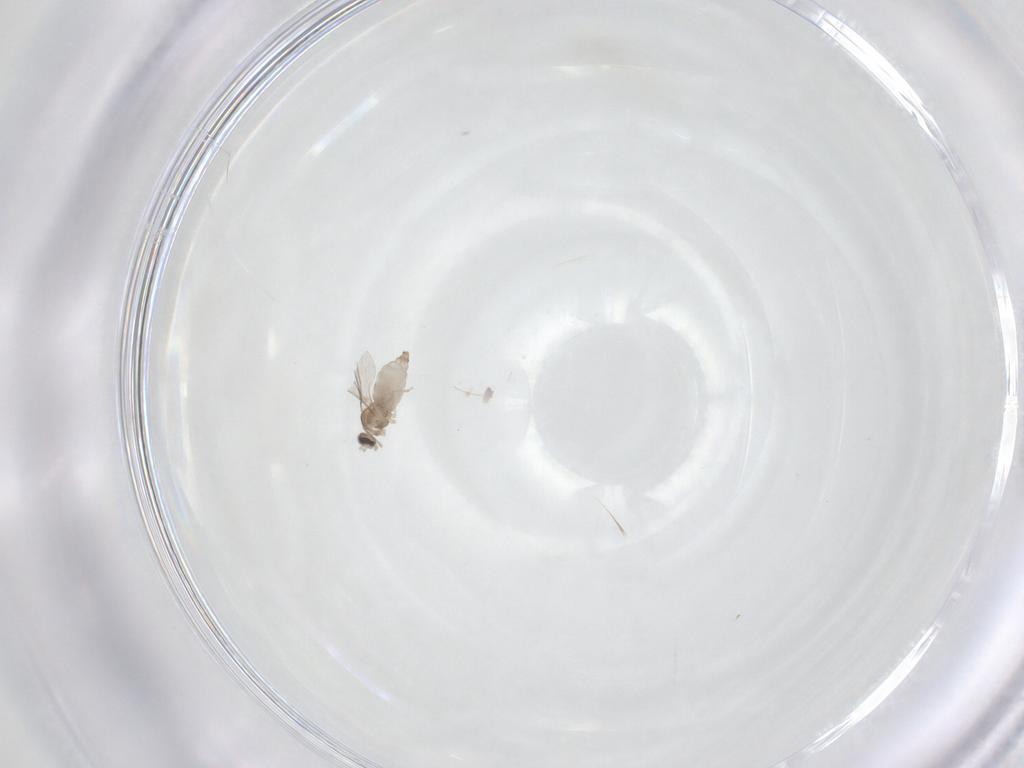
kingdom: Animalia
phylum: Arthropoda
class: Insecta
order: Diptera
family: Cecidomyiidae
